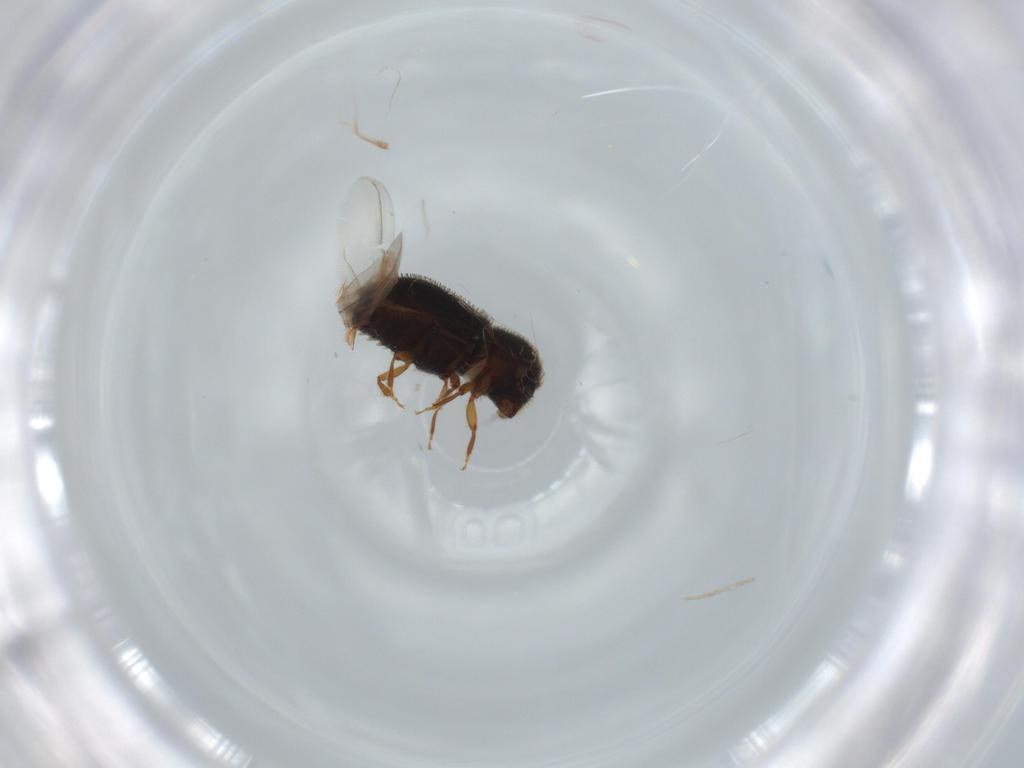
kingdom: Animalia
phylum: Arthropoda
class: Insecta
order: Coleoptera
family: Curculionidae
